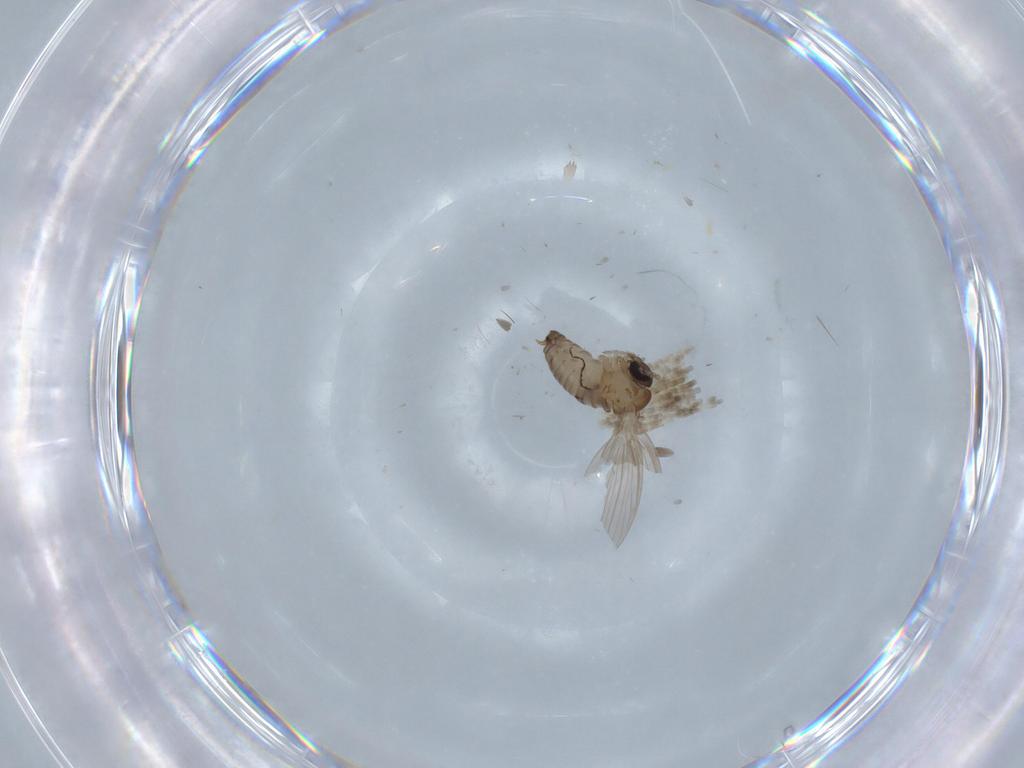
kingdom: Animalia
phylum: Arthropoda
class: Insecta
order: Diptera
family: Psychodidae
